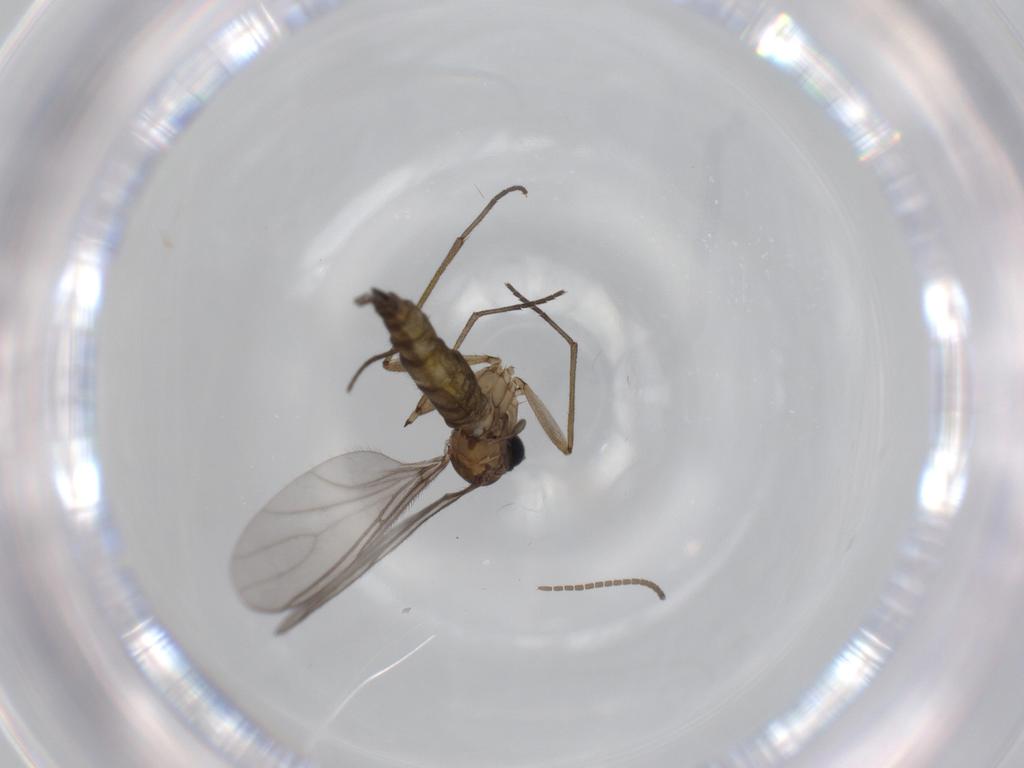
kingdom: Animalia
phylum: Arthropoda
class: Insecta
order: Diptera
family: Sciaridae
